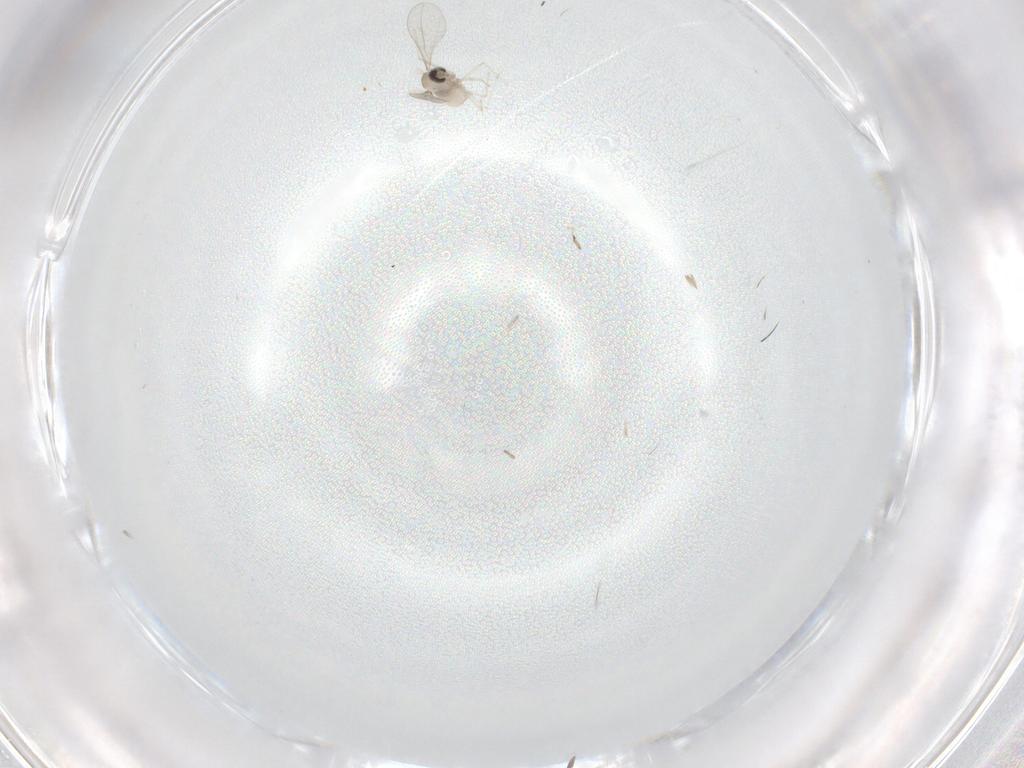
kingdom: Animalia
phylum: Arthropoda
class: Insecta
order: Diptera
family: Cecidomyiidae
